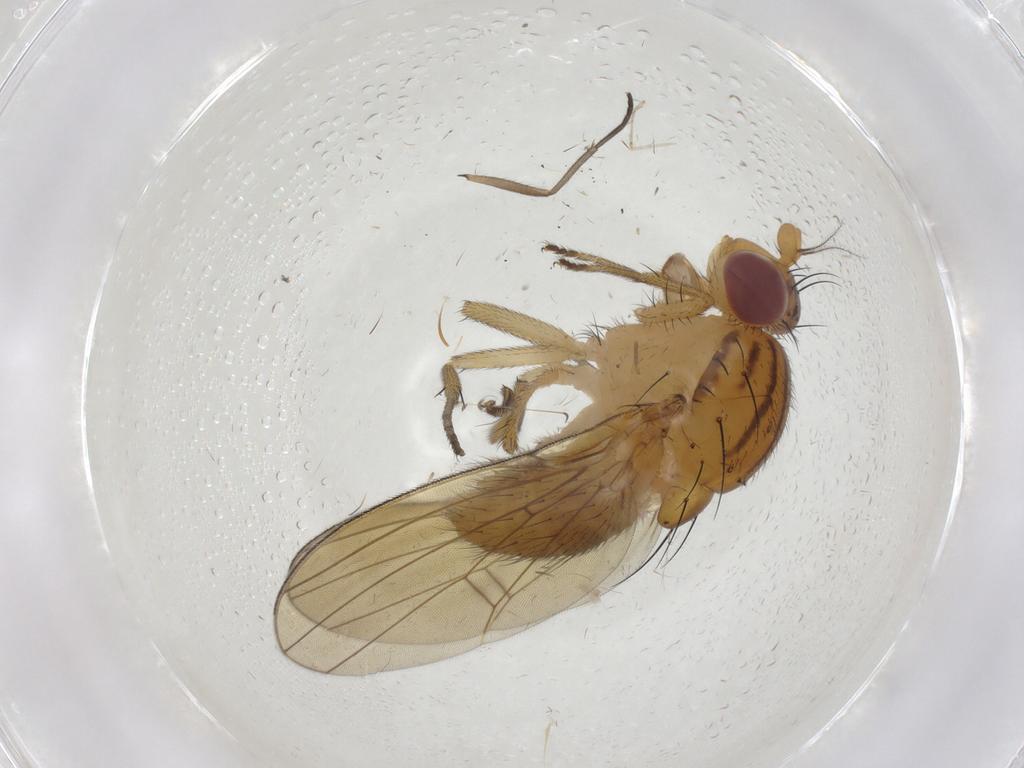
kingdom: Animalia
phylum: Arthropoda
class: Insecta
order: Diptera
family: Lauxaniidae
